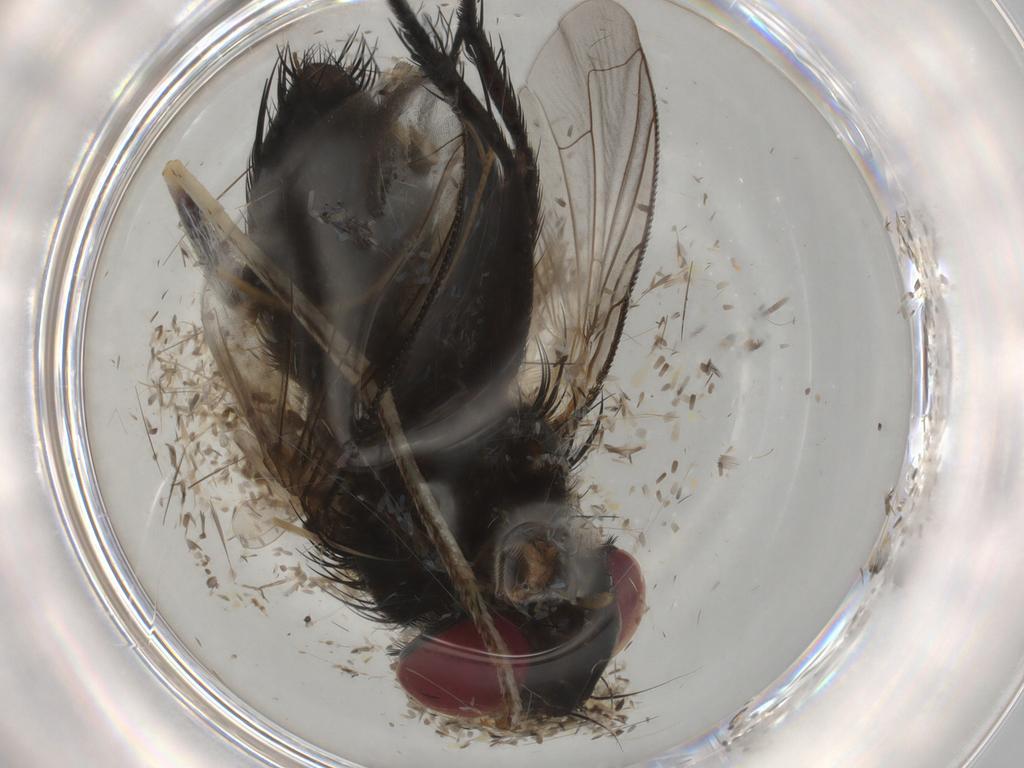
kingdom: Animalia
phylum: Arthropoda
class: Insecta
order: Diptera
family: Tachinidae
